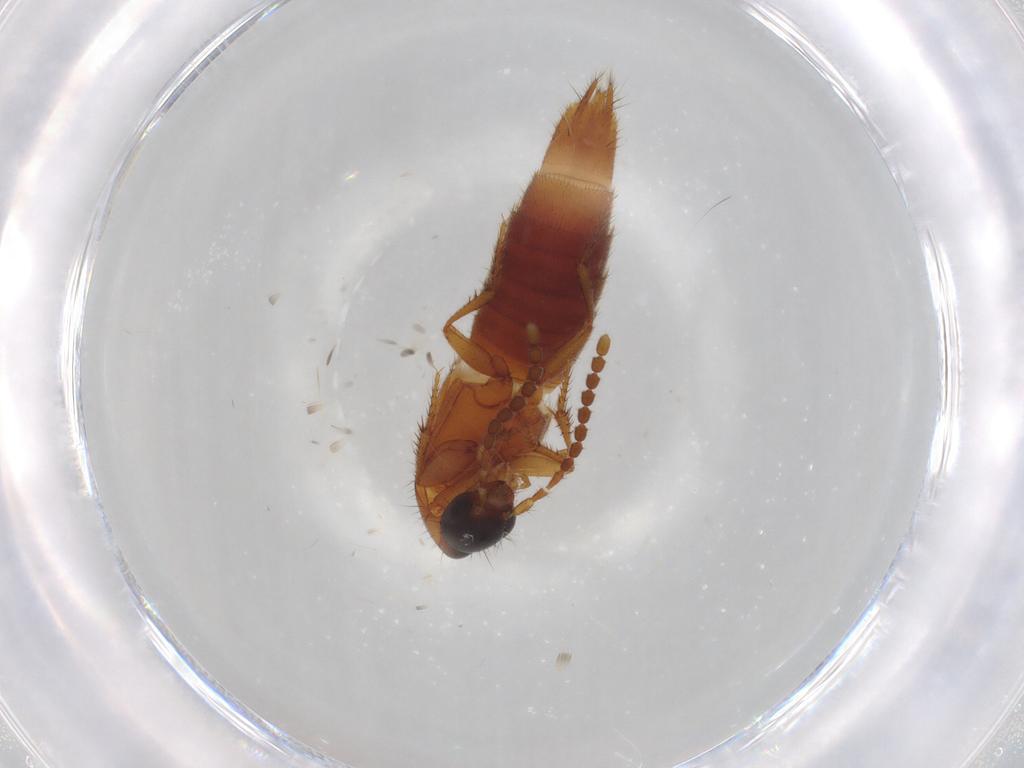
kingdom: Animalia
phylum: Arthropoda
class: Insecta
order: Coleoptera
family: Staphylinidae
